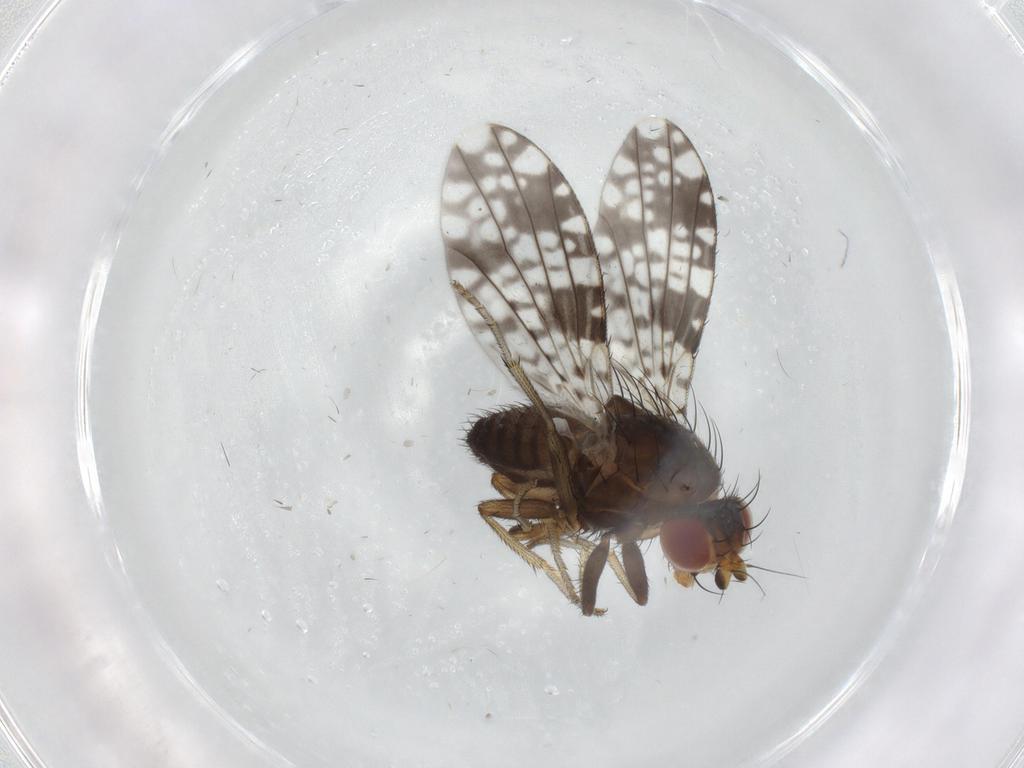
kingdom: Animalia
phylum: Arthropoda
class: Insecta
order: Diptera
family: Tephritidae
